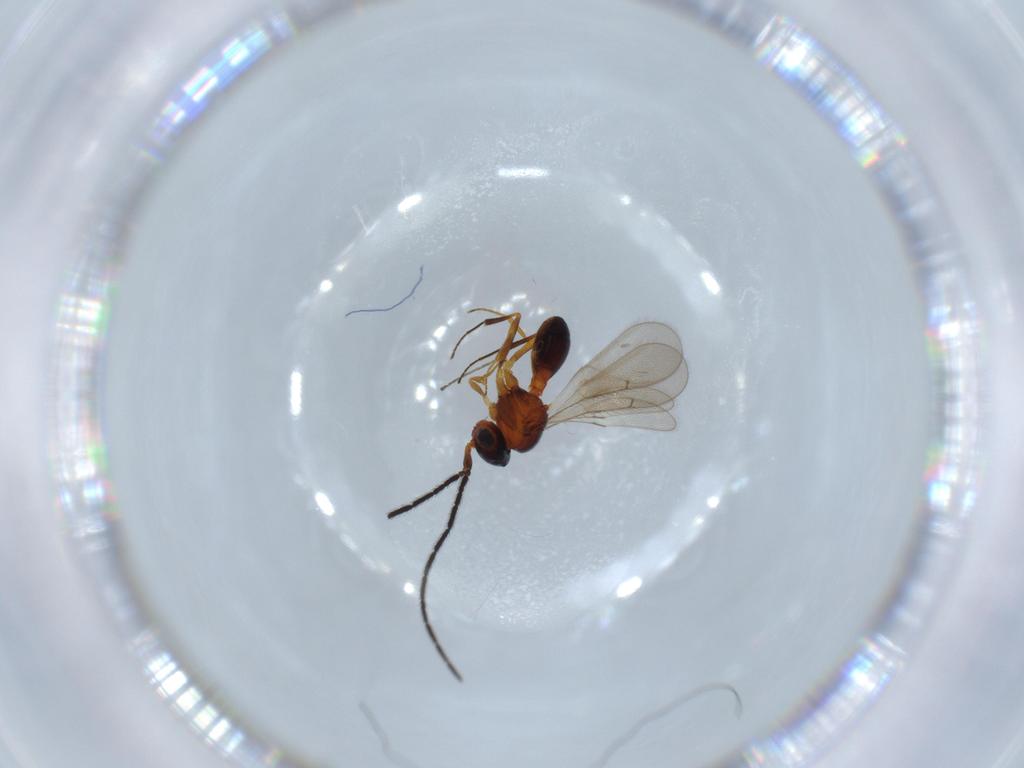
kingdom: Animalia
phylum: Arthropoda
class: Insecta
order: Hymenoptera
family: Scelionidae
